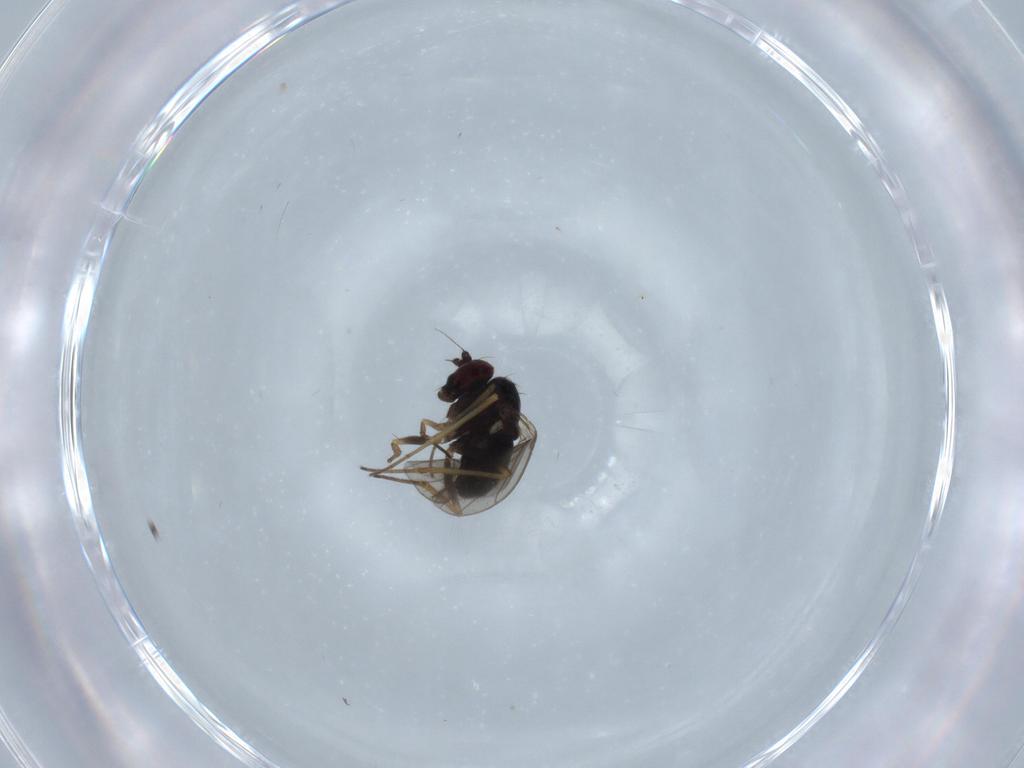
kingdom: Animalia
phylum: Arthropoda
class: Insecta
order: Diptera
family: Dolichopodidae
